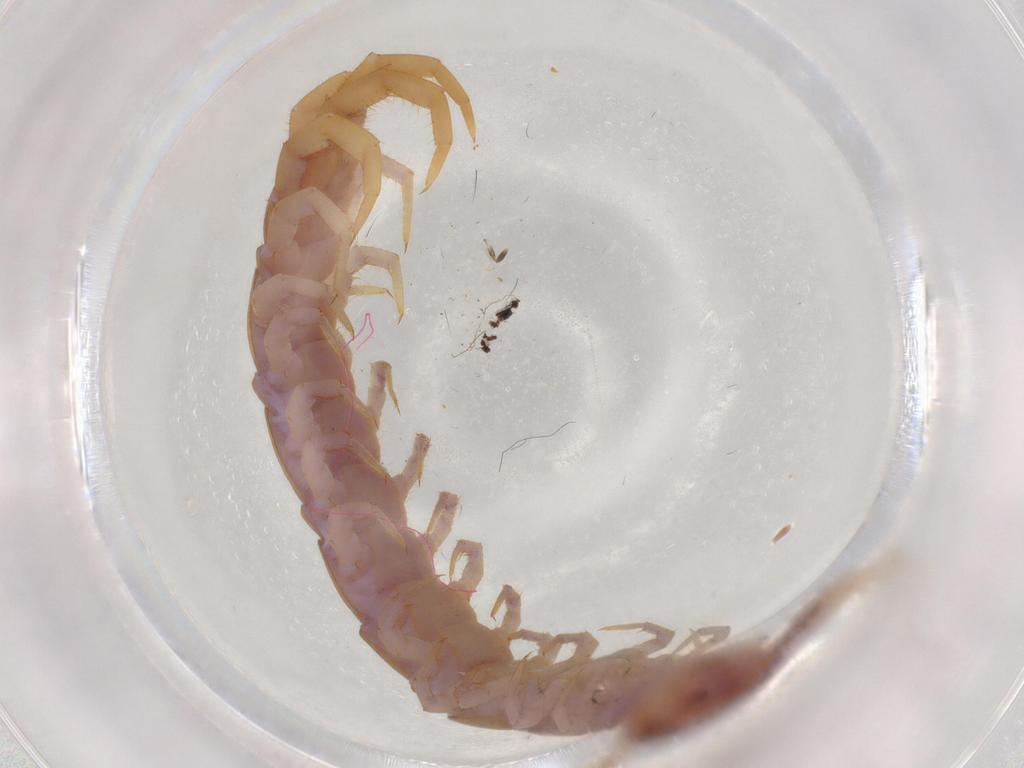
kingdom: Animalia
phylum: Arthropoda
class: Chilopoda
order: Lithobiomorpha
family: Lithobiidae
